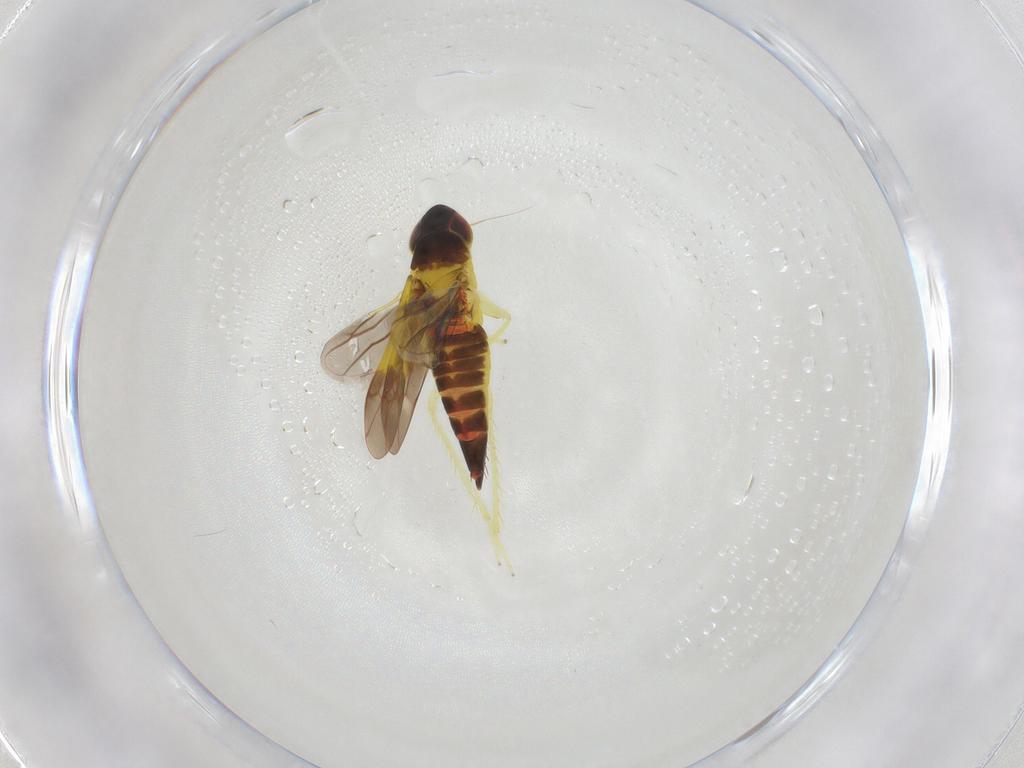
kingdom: Animalia
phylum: Arthropoda
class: Insecta
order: Hemiptera
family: Cicadellidae
